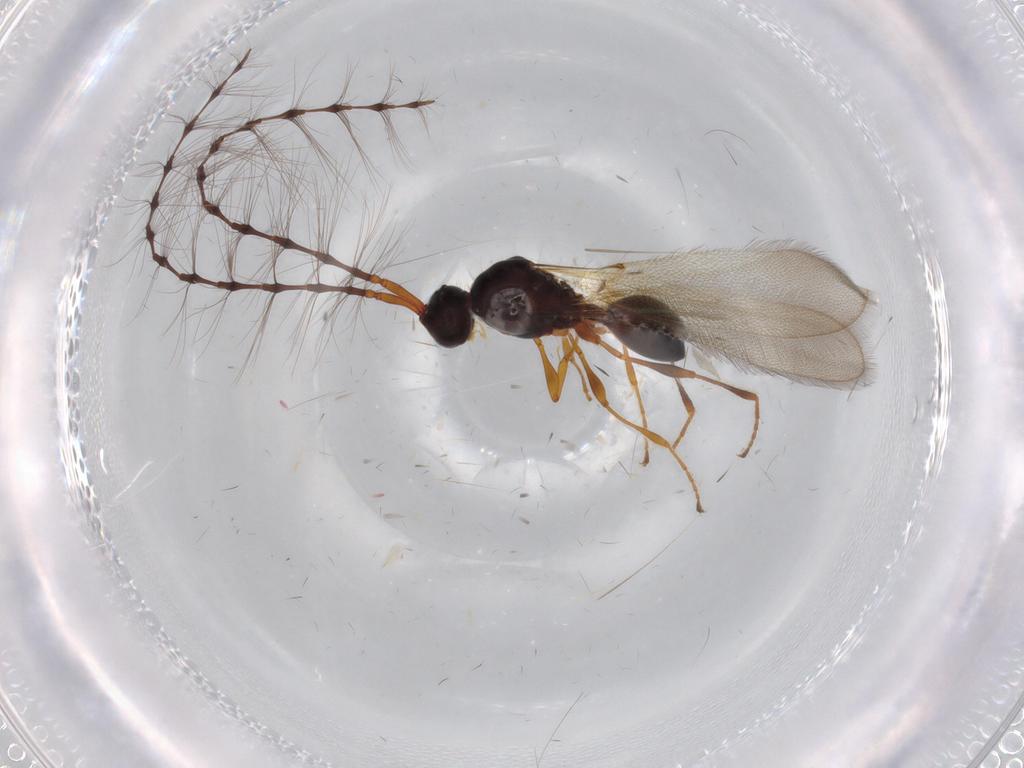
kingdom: Animalia
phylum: Arthropoda
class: Insecta
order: Hymenoptera
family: Diapriidae
